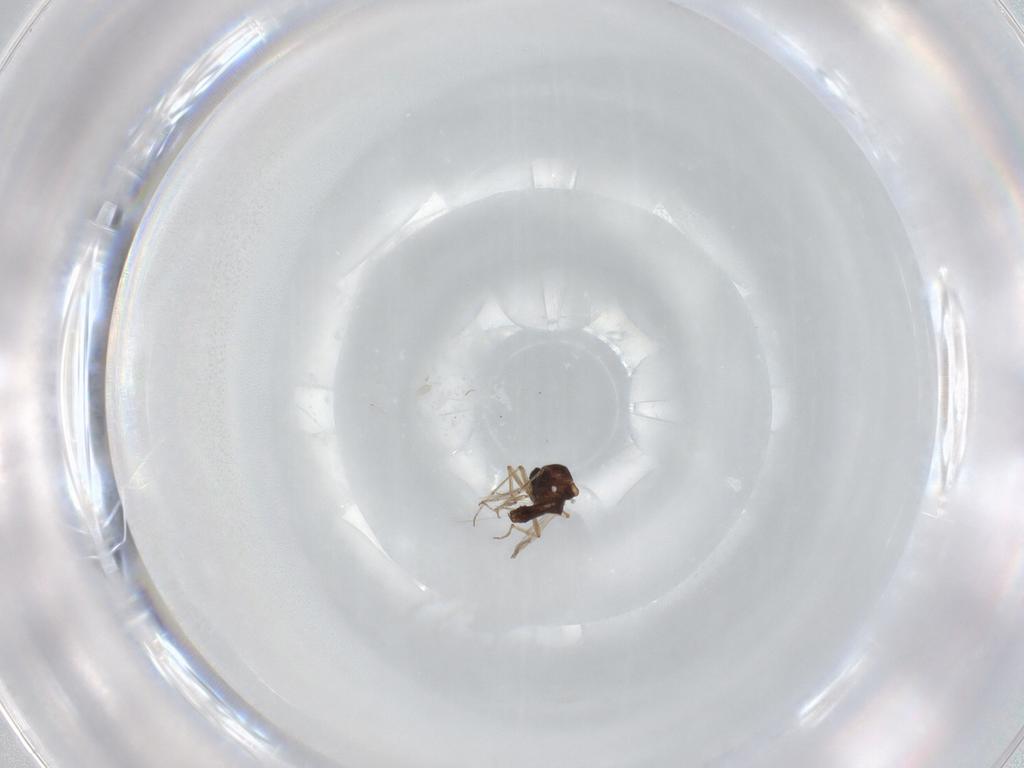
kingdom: Animalia
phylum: Arthropoda
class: Insecta
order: Diptera
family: Ceratopogonidae
